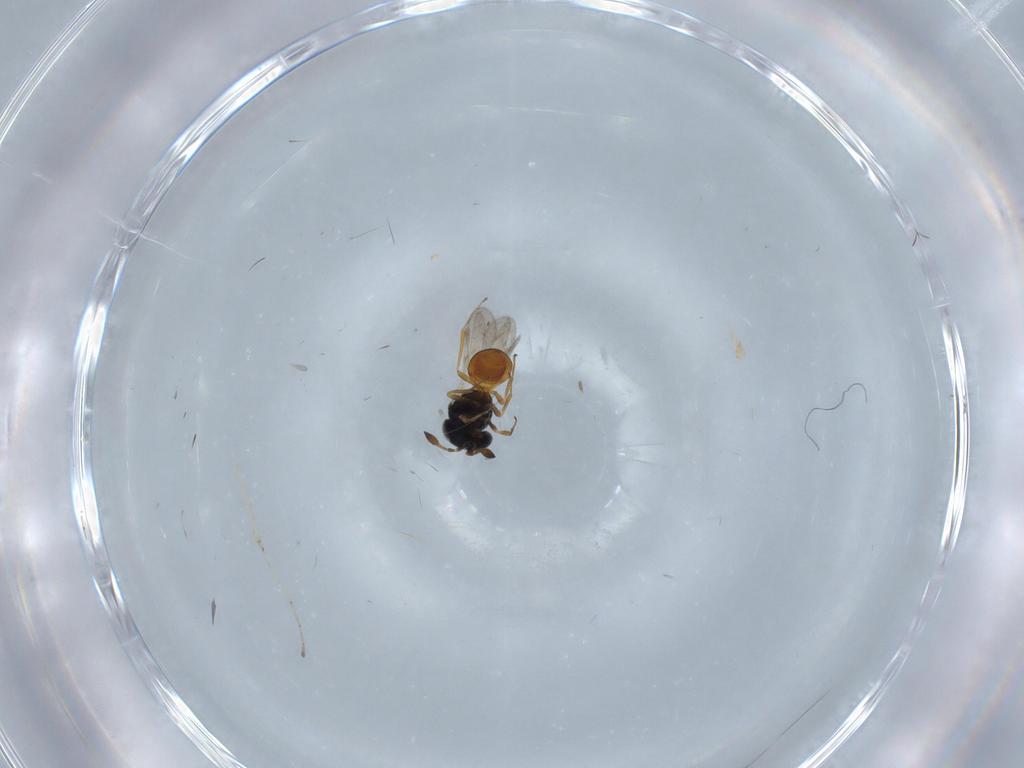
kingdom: Animalia
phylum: Arthropoda
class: Insecta
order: Hymenoptera
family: Scelionidae
